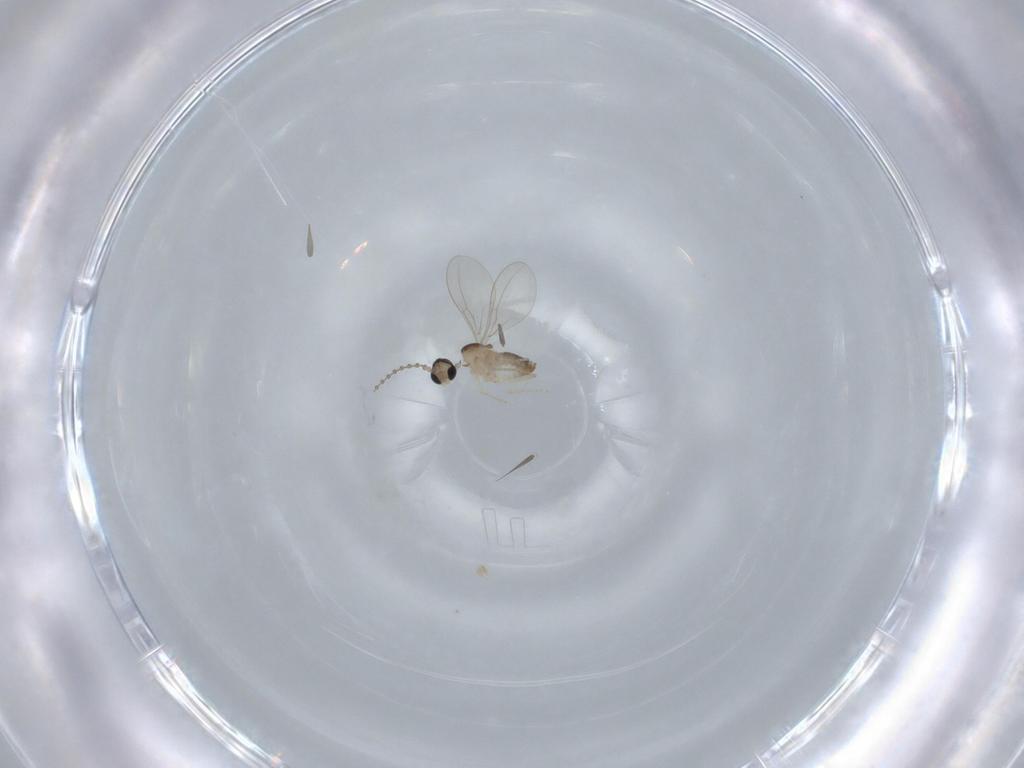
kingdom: Animalia
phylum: Arthropoda
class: Insecta
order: Diptera
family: Cecidomyiidae
